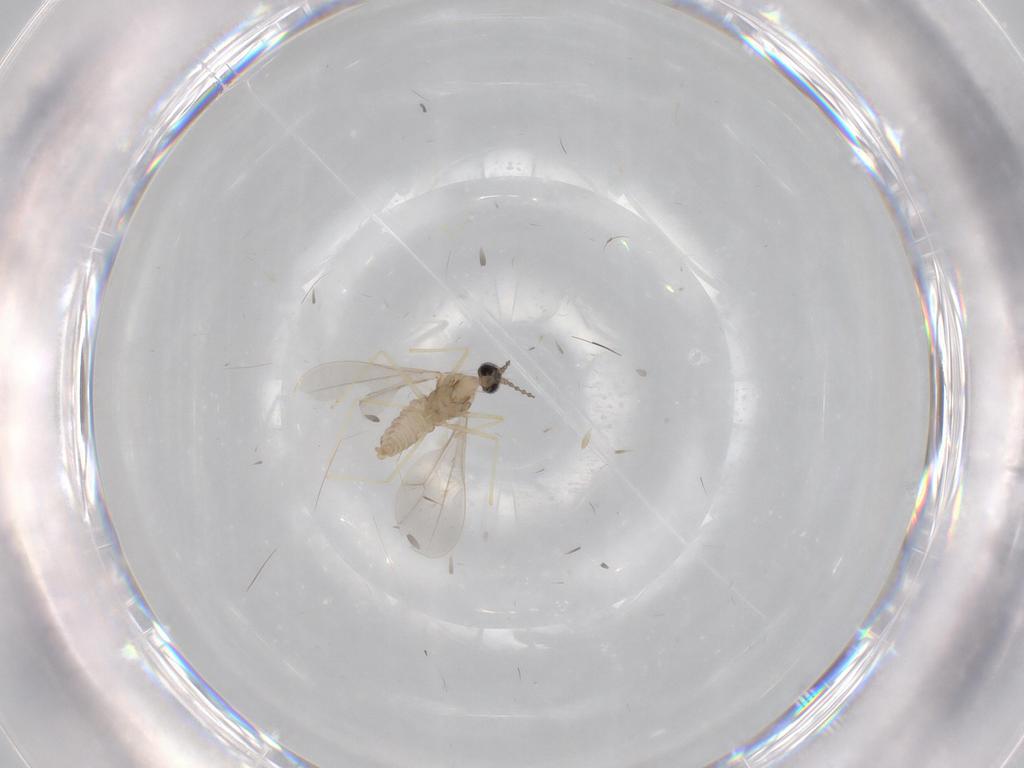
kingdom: Animalia
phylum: Arthropoda
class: Insecta
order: Diptera
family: Cecidomyiidae
